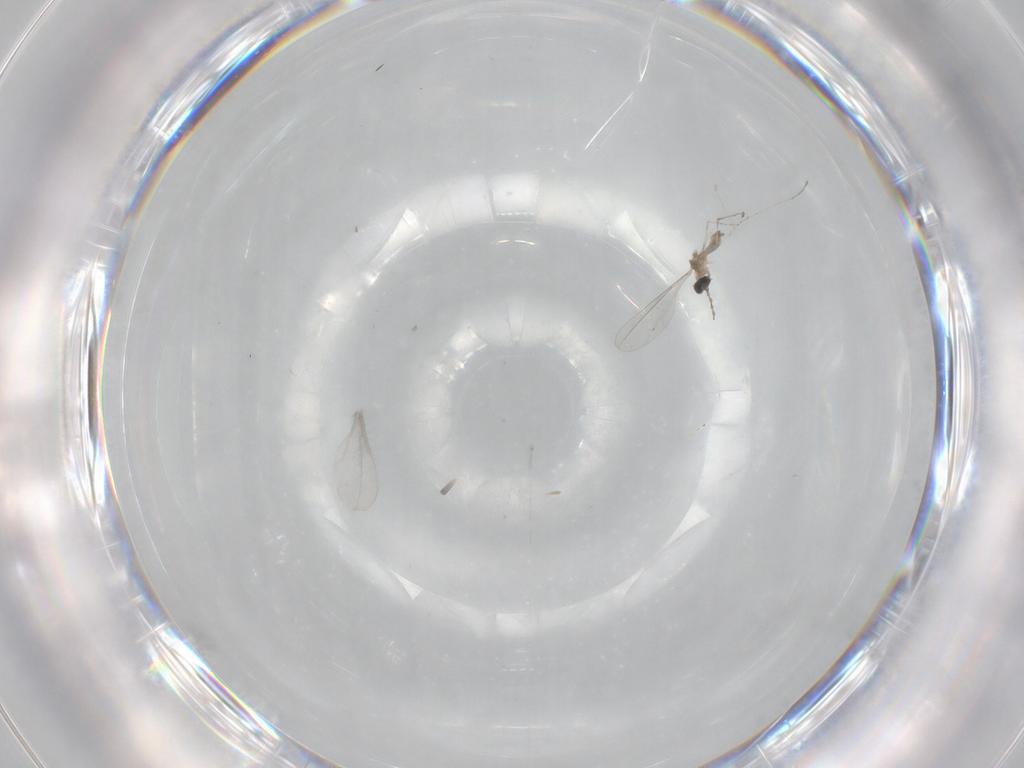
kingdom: Animalia
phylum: Arthropoda
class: Insecta
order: Diptera
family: Cecidomyiidae
